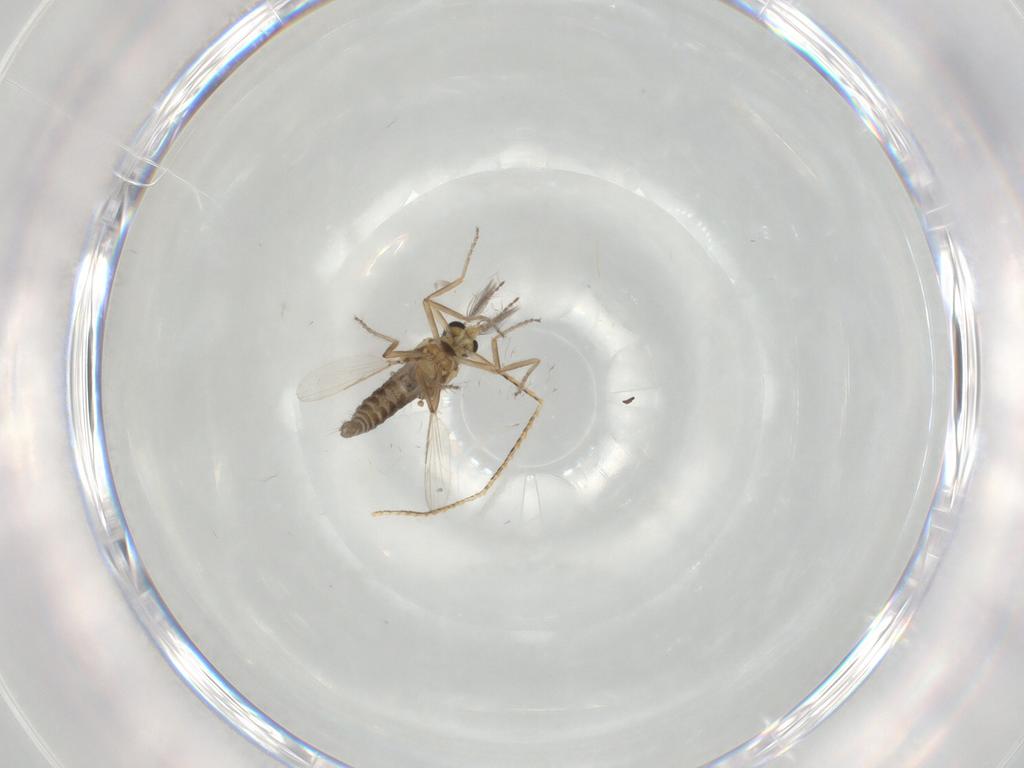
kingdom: Animalia
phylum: Arthropoda
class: Insecta
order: Diptera
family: Ceratopogonidae
